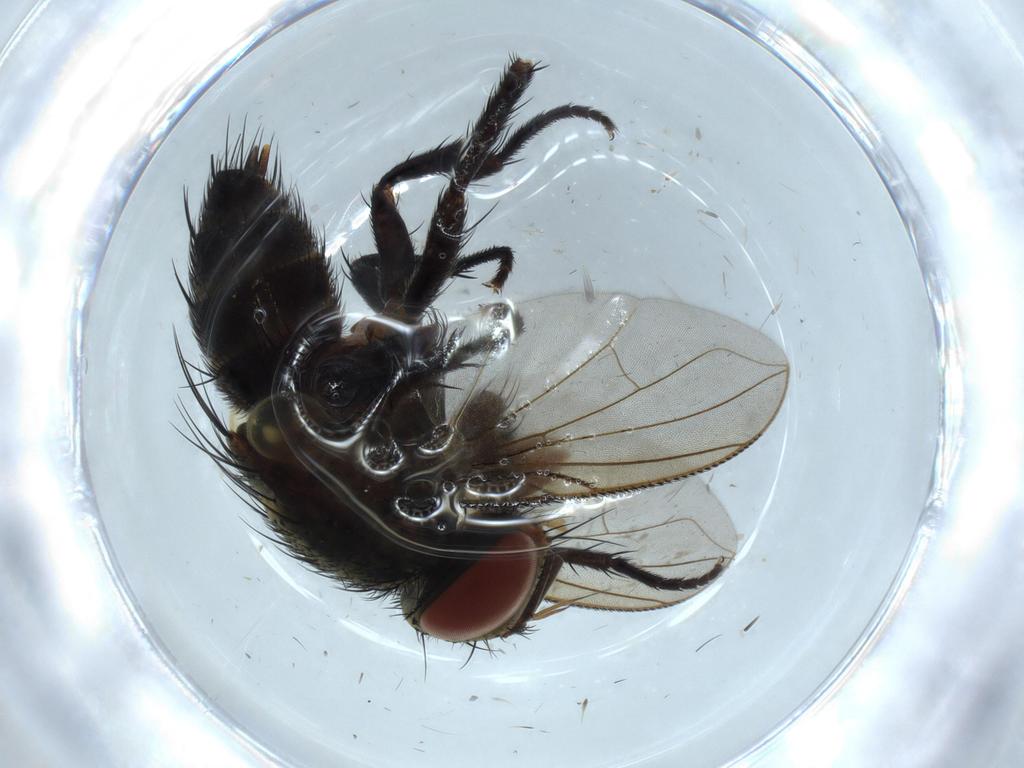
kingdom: Animalia
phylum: Arthropoda
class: Insecta
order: Diptera
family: Milichiidae
